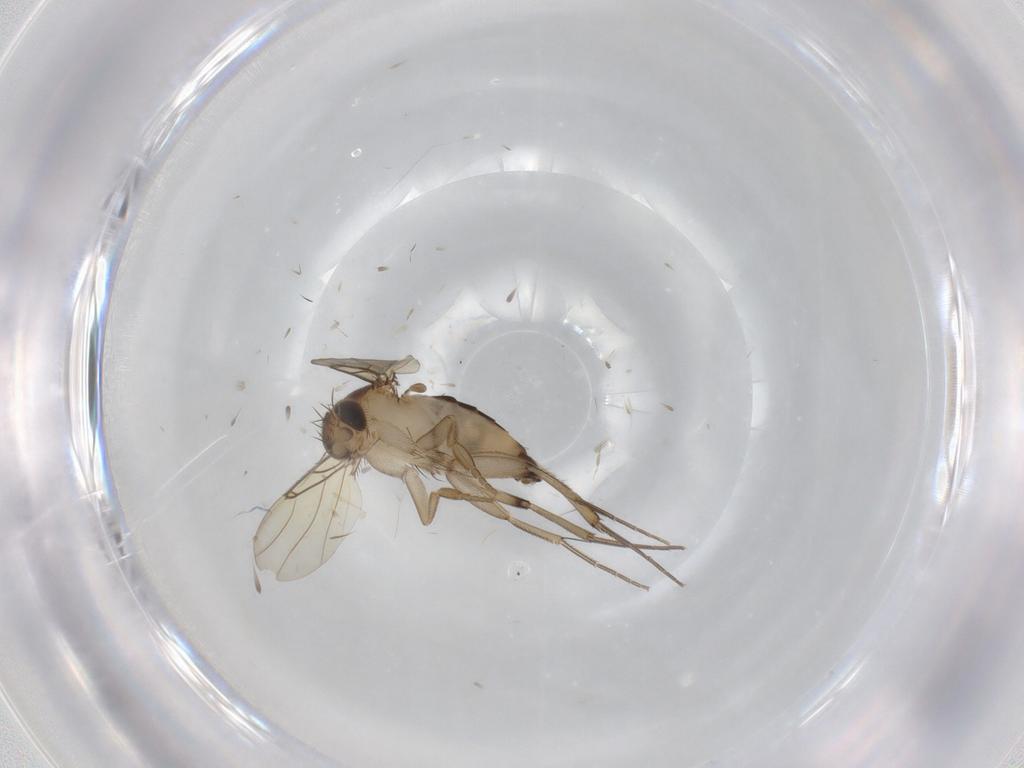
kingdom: Animalia
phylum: Arthropoda
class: Insecta
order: Diptera
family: Phoridae
